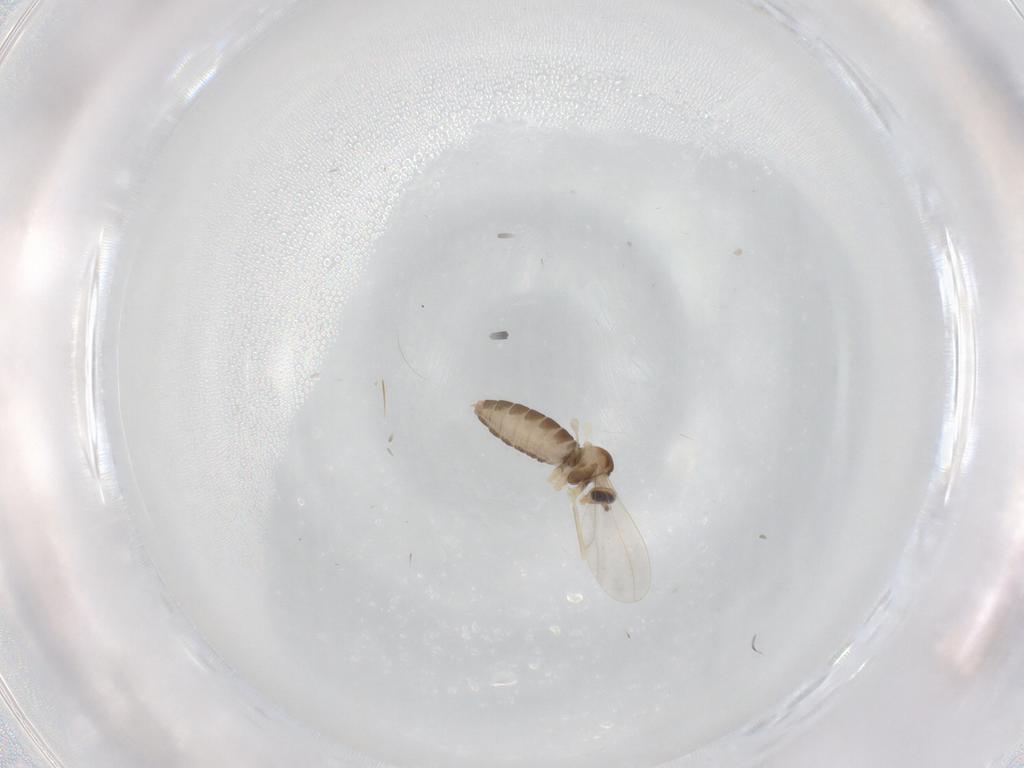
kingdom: Animalia
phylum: Arthropoda
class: Insecta
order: Diptera
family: Cecidomyiidae
